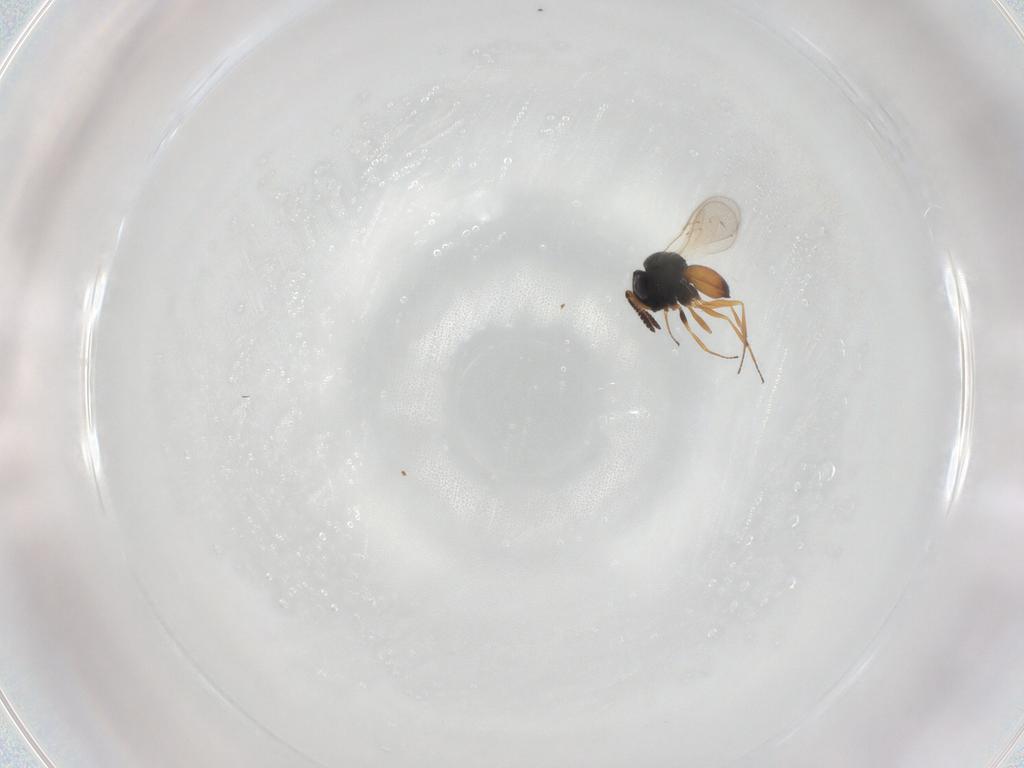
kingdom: Animalia
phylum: Arthropoda
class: Insecta
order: Hymenoptera
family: Scelionidae
